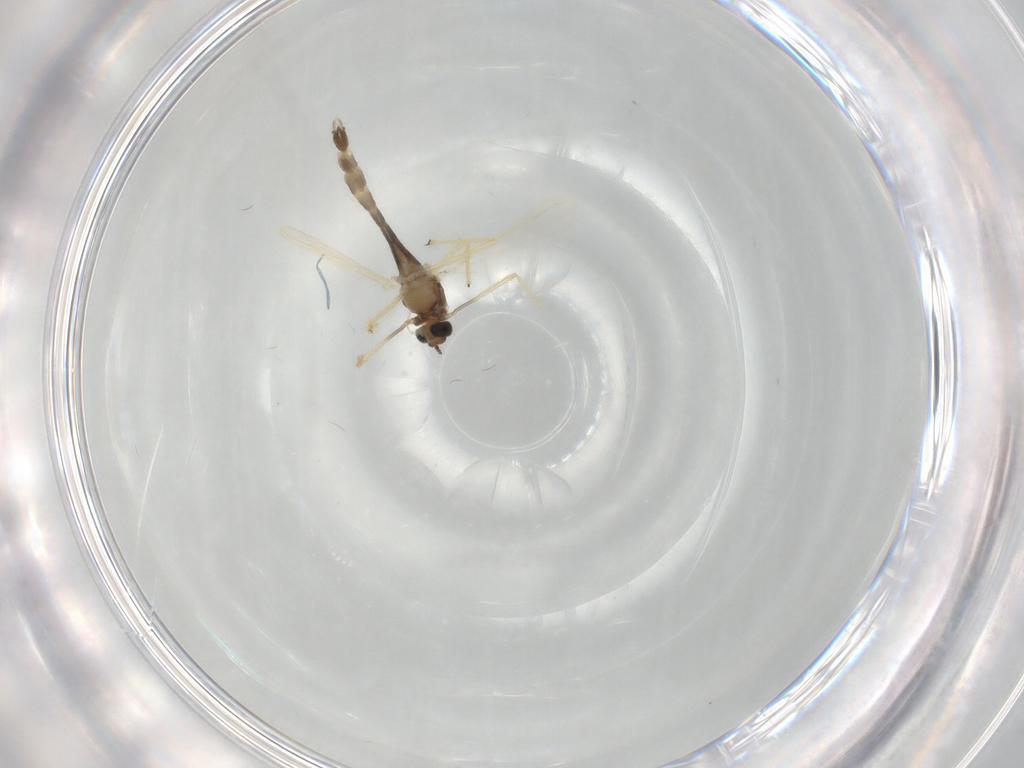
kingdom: Animalia
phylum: Arthropoda
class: Insecta
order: Diptera
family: Chironomidae
